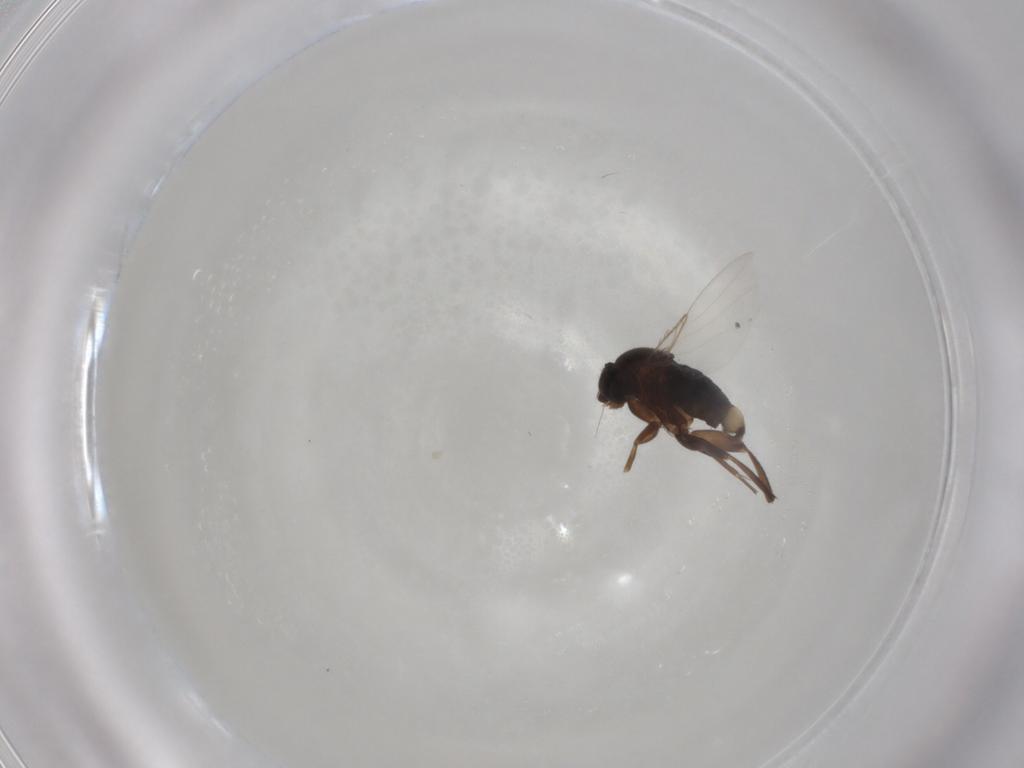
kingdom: Animalia
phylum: Arthropoda
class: Insecta
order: Diptera
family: Phoridae
